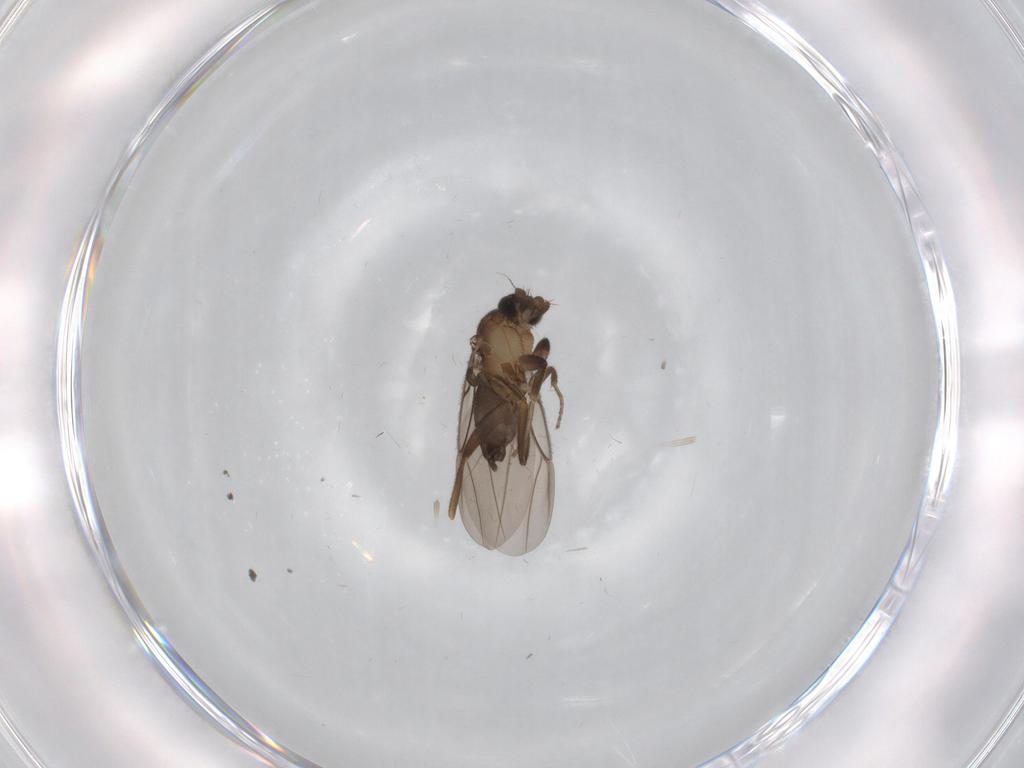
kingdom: Animalia
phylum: Arthropoda
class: Insecta
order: Diptera
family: Phoridae
